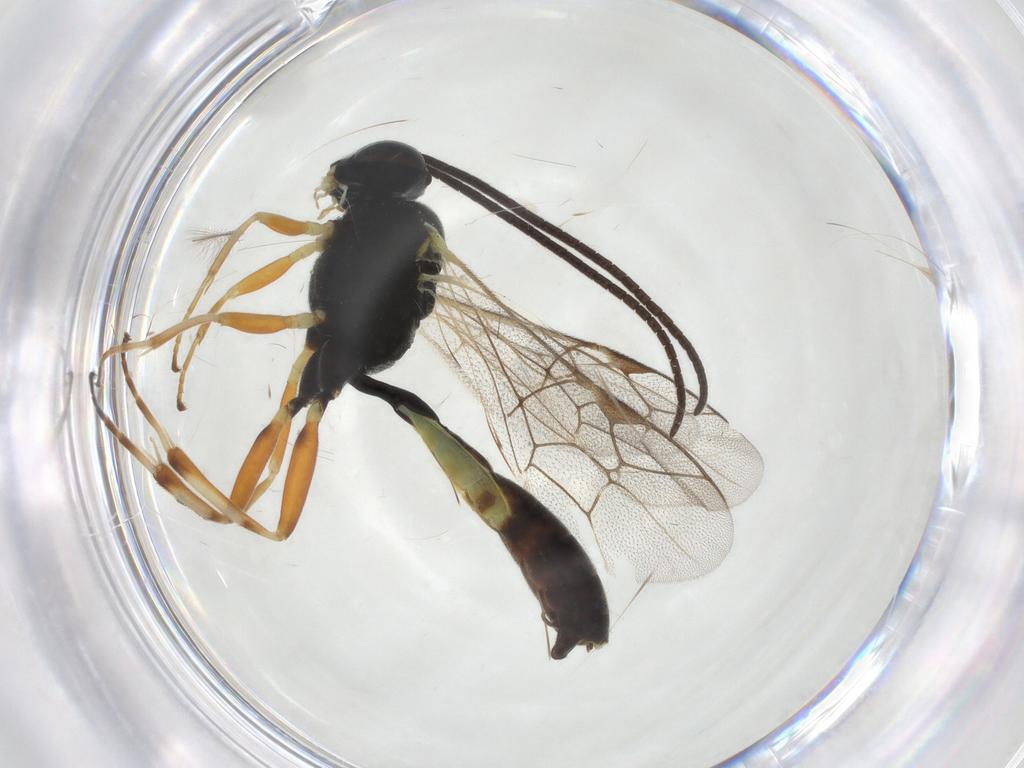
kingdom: Animalia
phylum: Arthropoda
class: Insecta
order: Hymenoptera
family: Ichneumonidae
